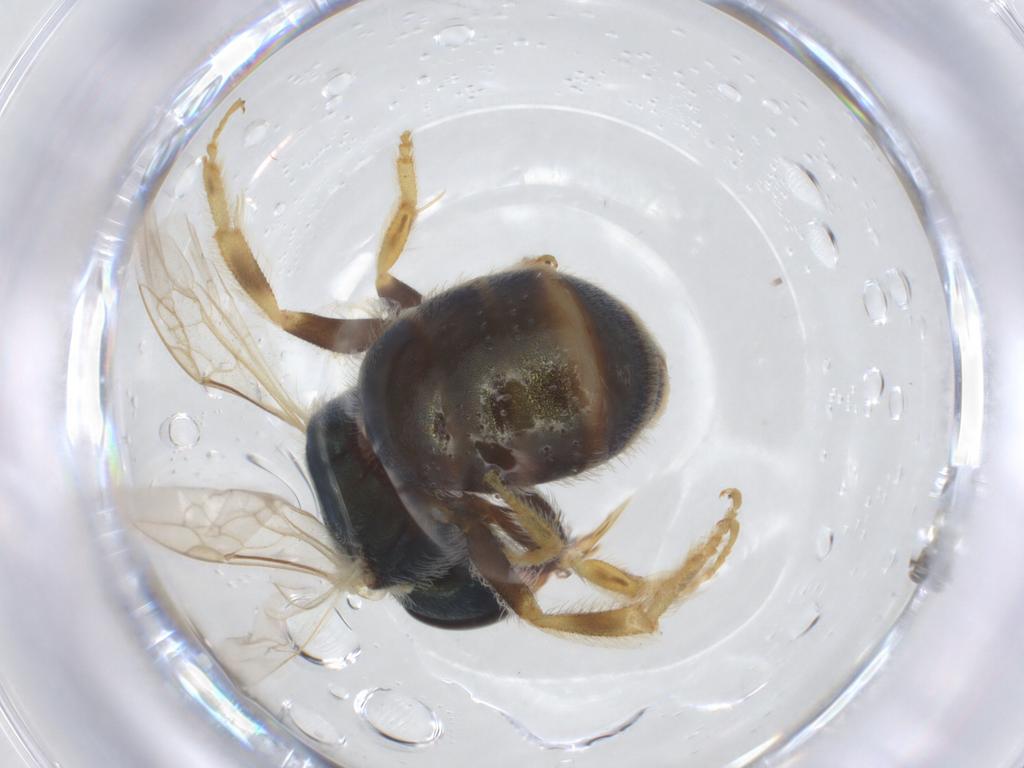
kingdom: Animalia
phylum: Arthropoda
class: Insecta
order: Hymenoptera
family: Halictidae
